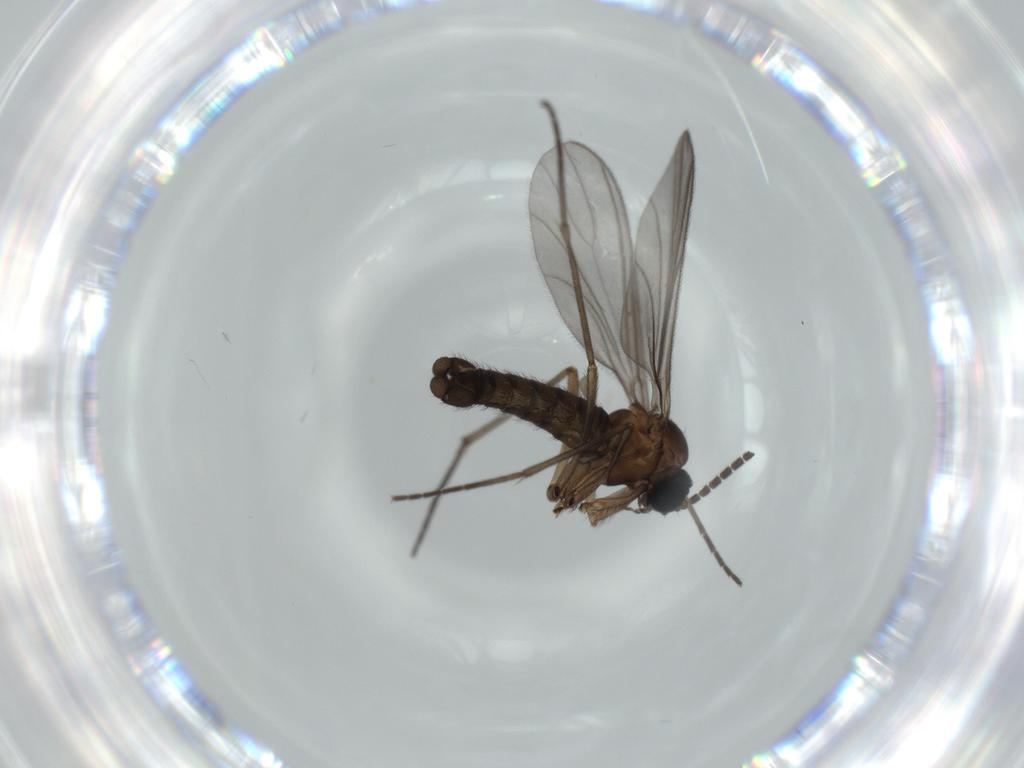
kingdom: Animalia
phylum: Arthropoda
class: Insecta
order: Diptera
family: Sciaridae
